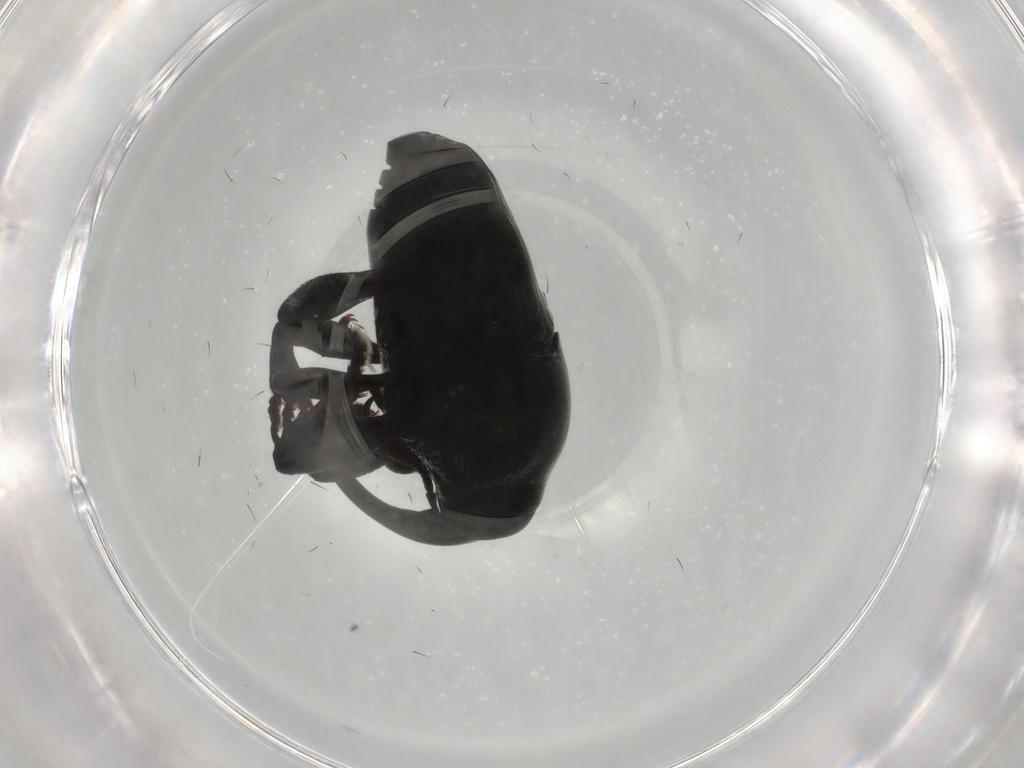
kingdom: Animalia
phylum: Arthropoda
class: Insecta
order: Coleoptera
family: Curculionidae
